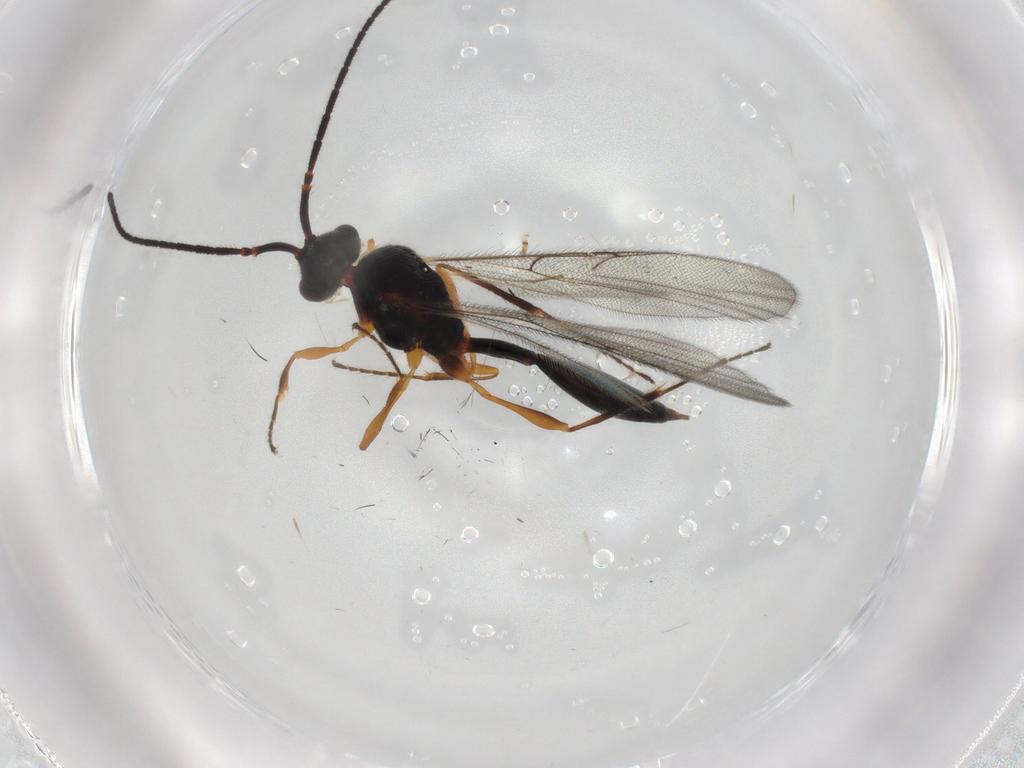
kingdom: Animalia
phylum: Arthropoda
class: Insecta
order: Hymenoptera
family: Diapriidae
